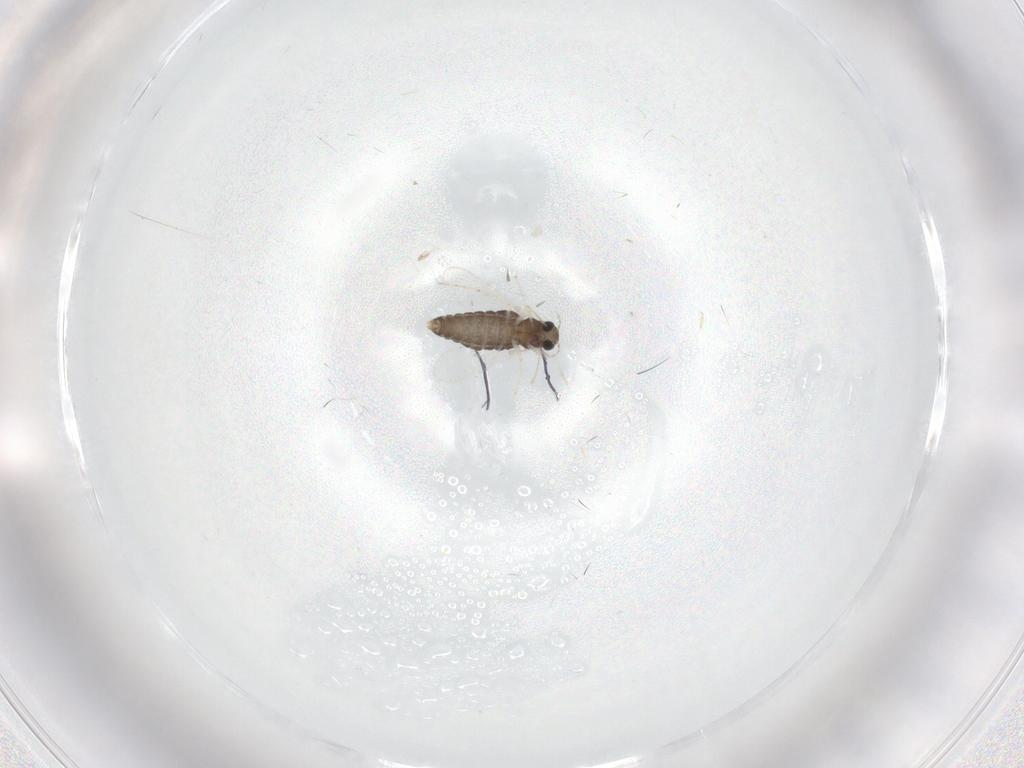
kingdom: Animalia
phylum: Arthropoda
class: Insecta
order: Diptera
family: Chironomidae
